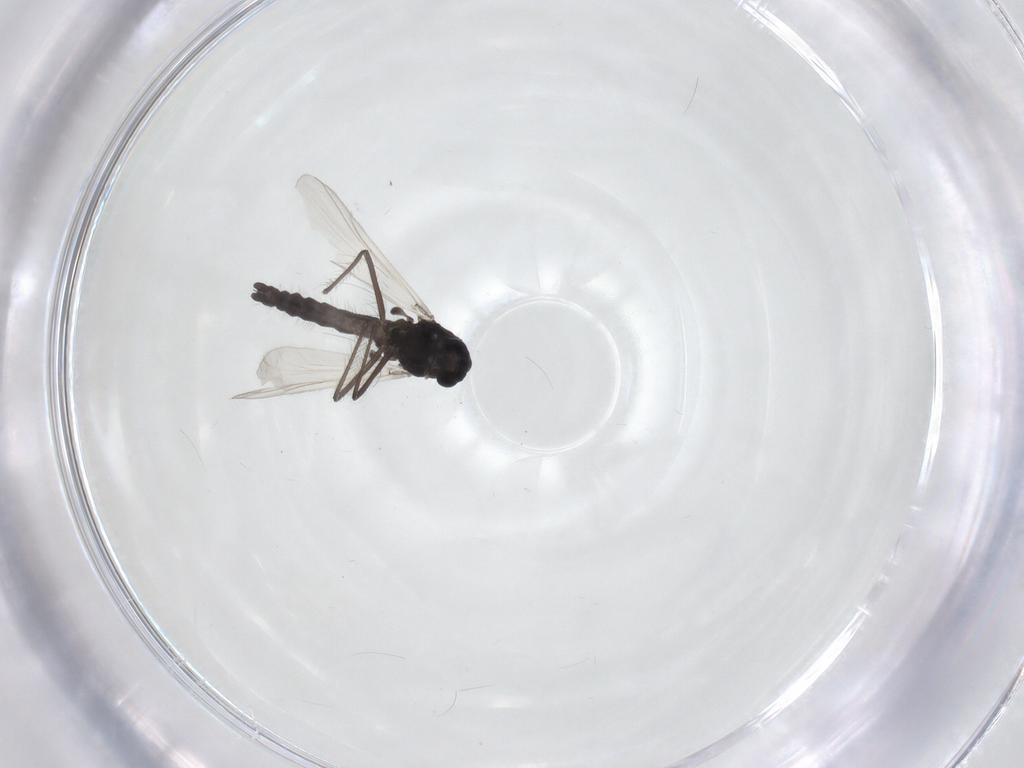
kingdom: Animalia
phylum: Arthropoda
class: Insecta
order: Diptera
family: Chironomidae
